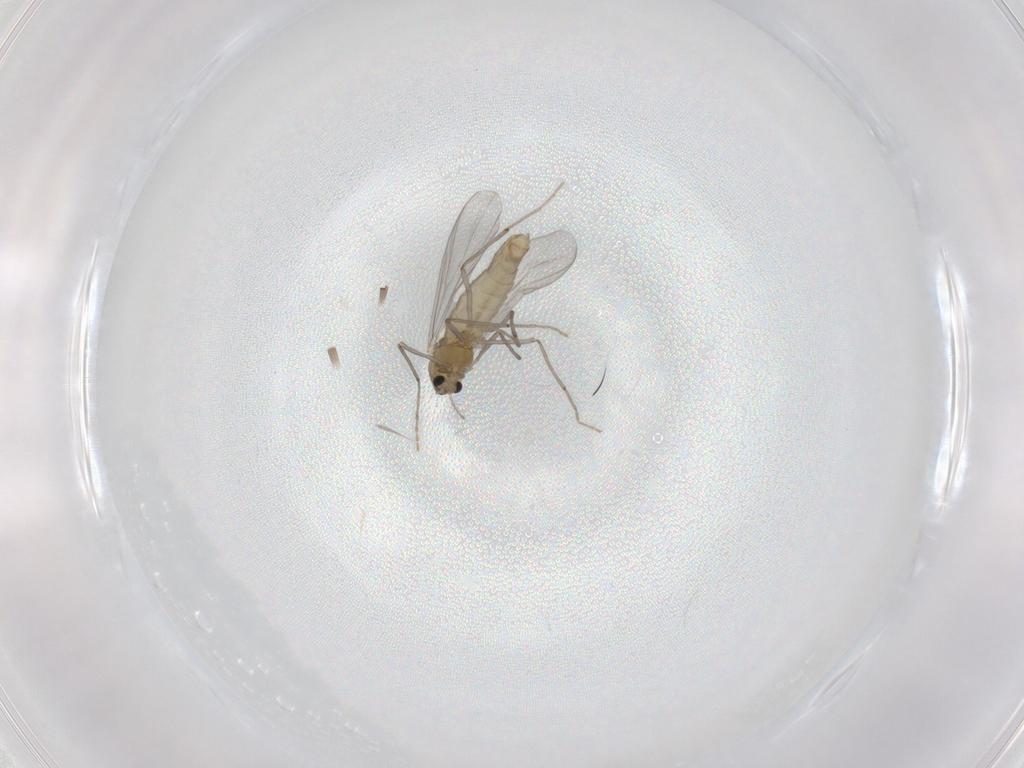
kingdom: Animalia
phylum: Arthropoda
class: Insecta
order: Diptera
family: Chironomidae
